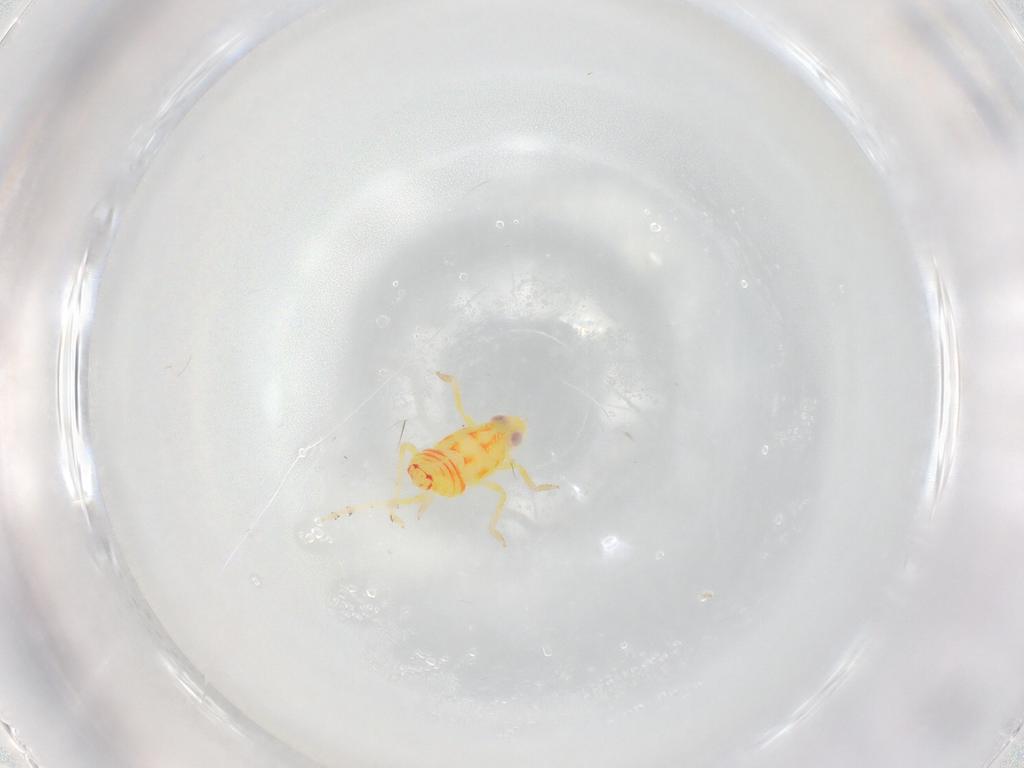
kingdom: Animalia
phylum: Arthropoda
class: Insecta
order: Hemiptera
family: Tropiduchidae
